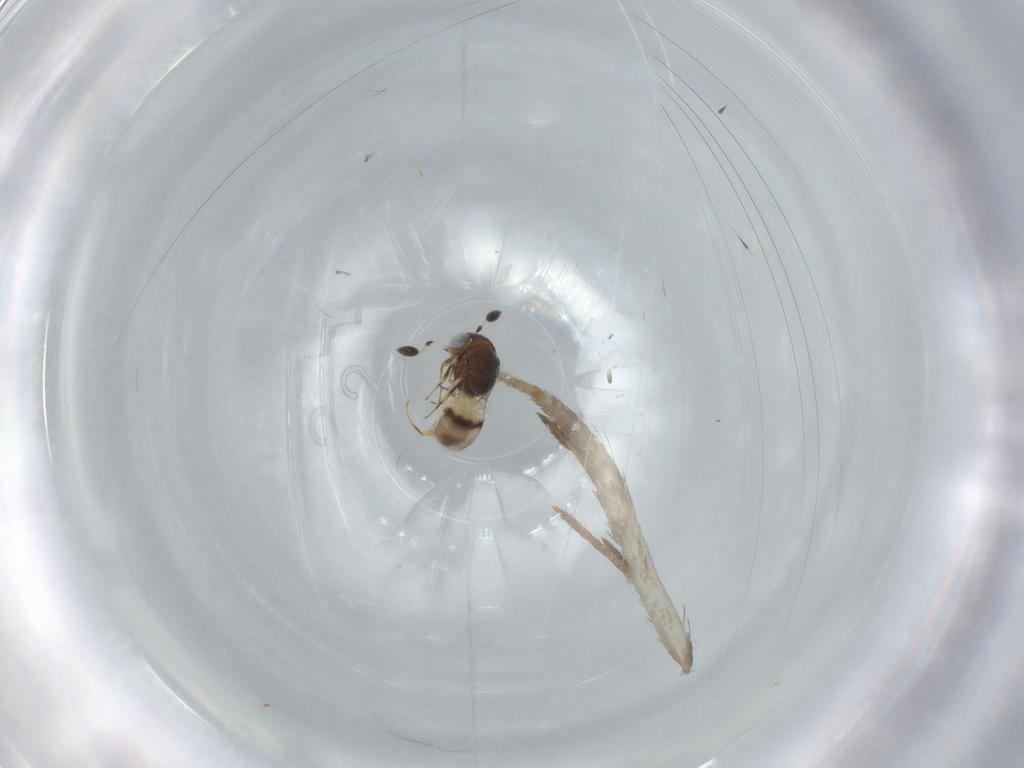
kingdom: Animalia
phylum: Arthropoda
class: Arachnida
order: Araneae
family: Pholcidae
